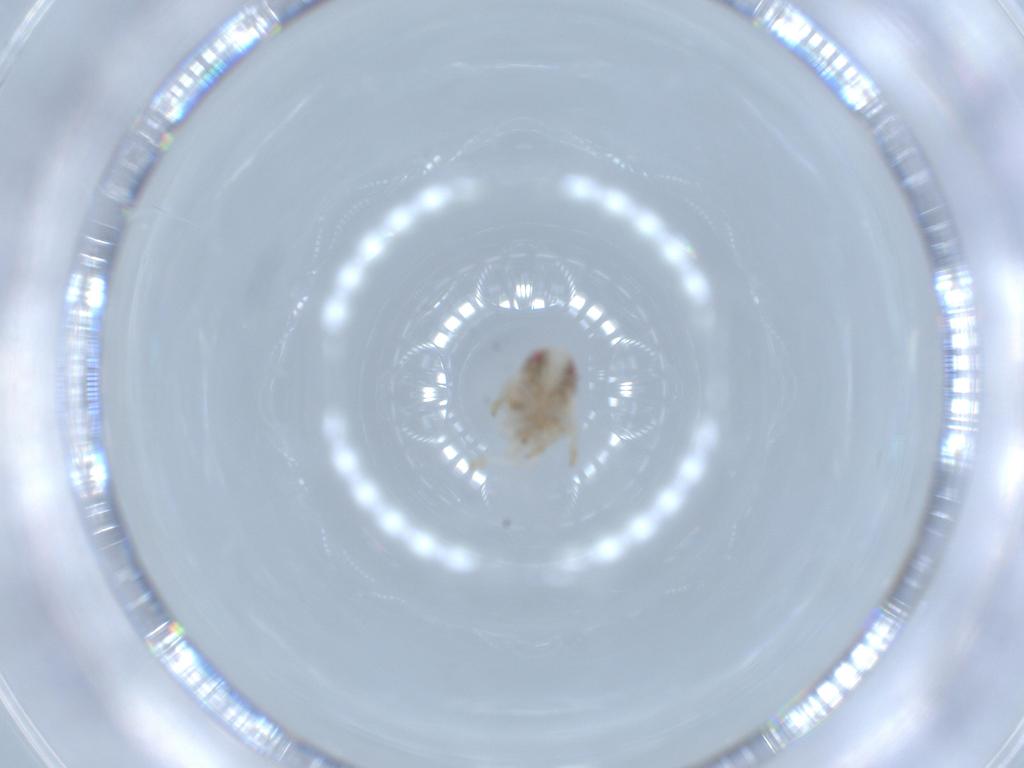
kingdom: Animalia
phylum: Arthropoda
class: Insecta
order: Hemiptera
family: Acanaloniidae
